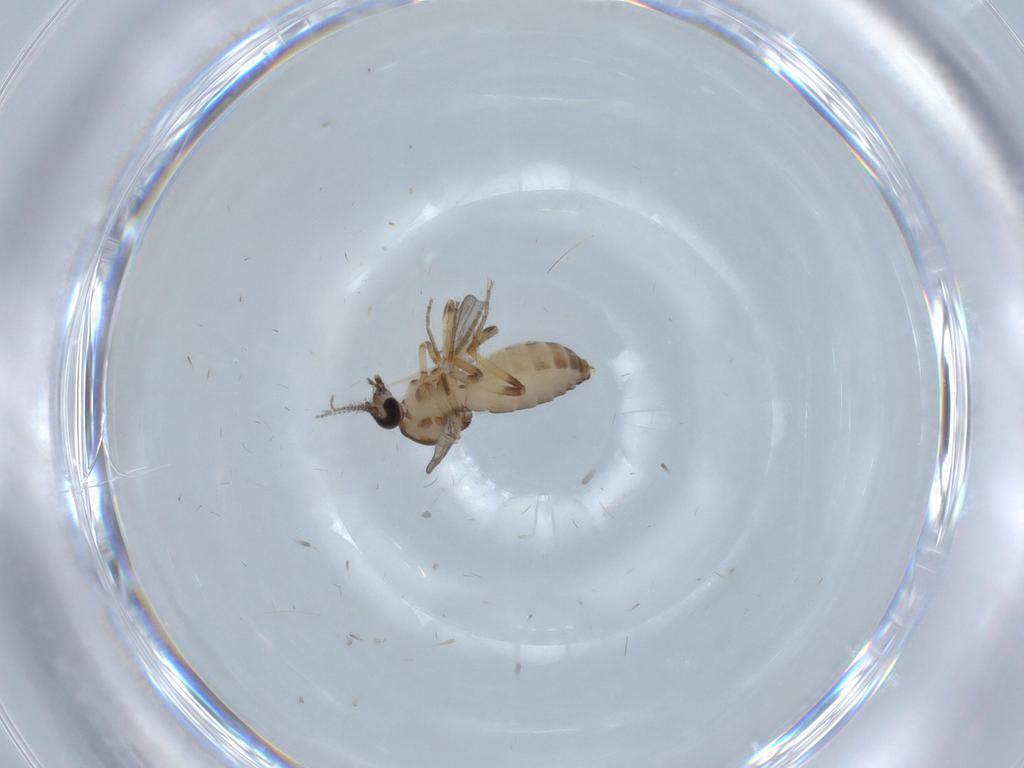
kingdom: Animalia
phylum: Arthropoda
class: Insecta
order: Diptera
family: Ceratopogonidae
